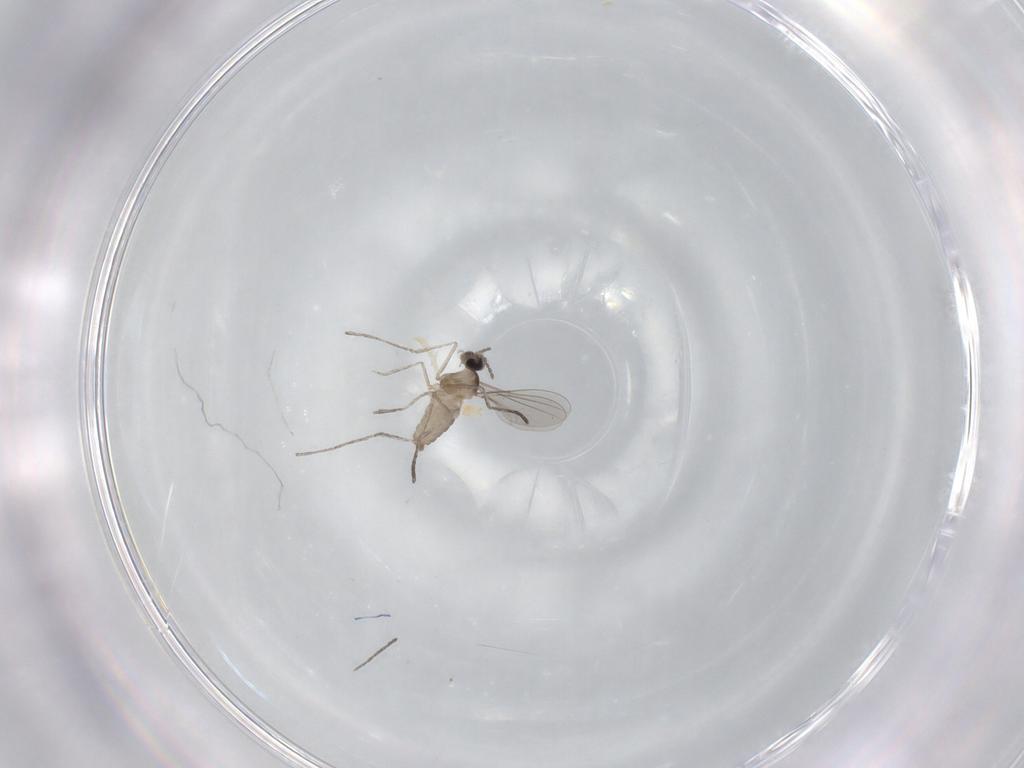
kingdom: Animalia
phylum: Arthropoda
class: Insecta
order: Diptera
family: Cecidomyiidae
